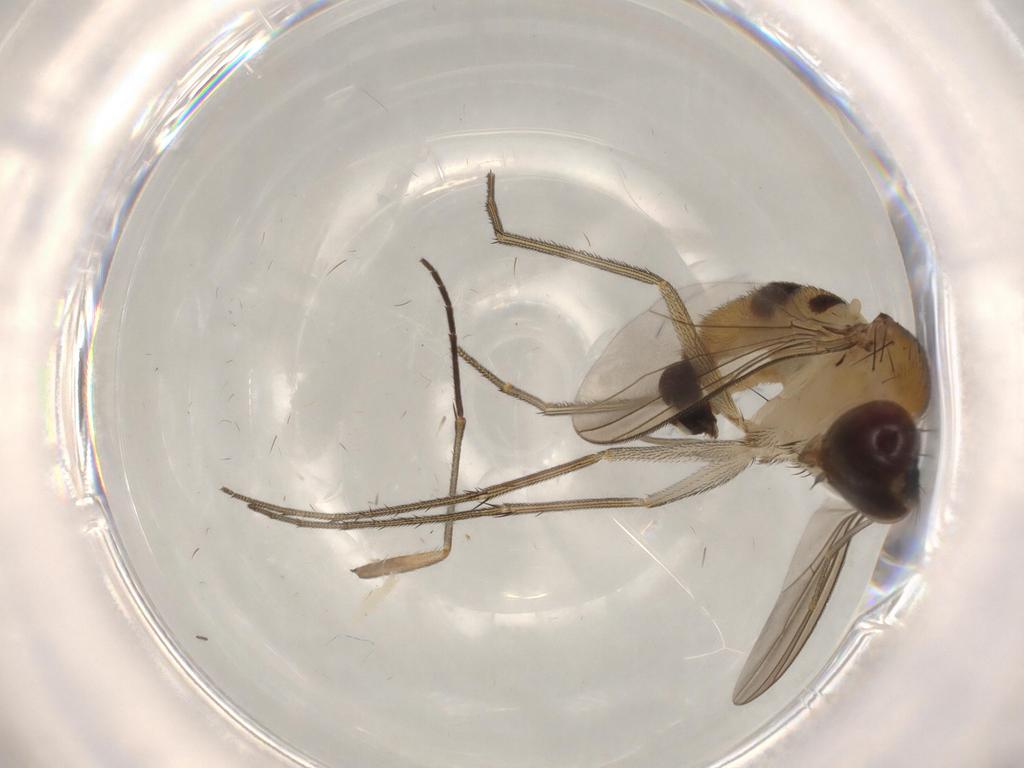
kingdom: Animalia
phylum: Arthropoda
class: Insecta
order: Diptera
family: Dolichopodidae
